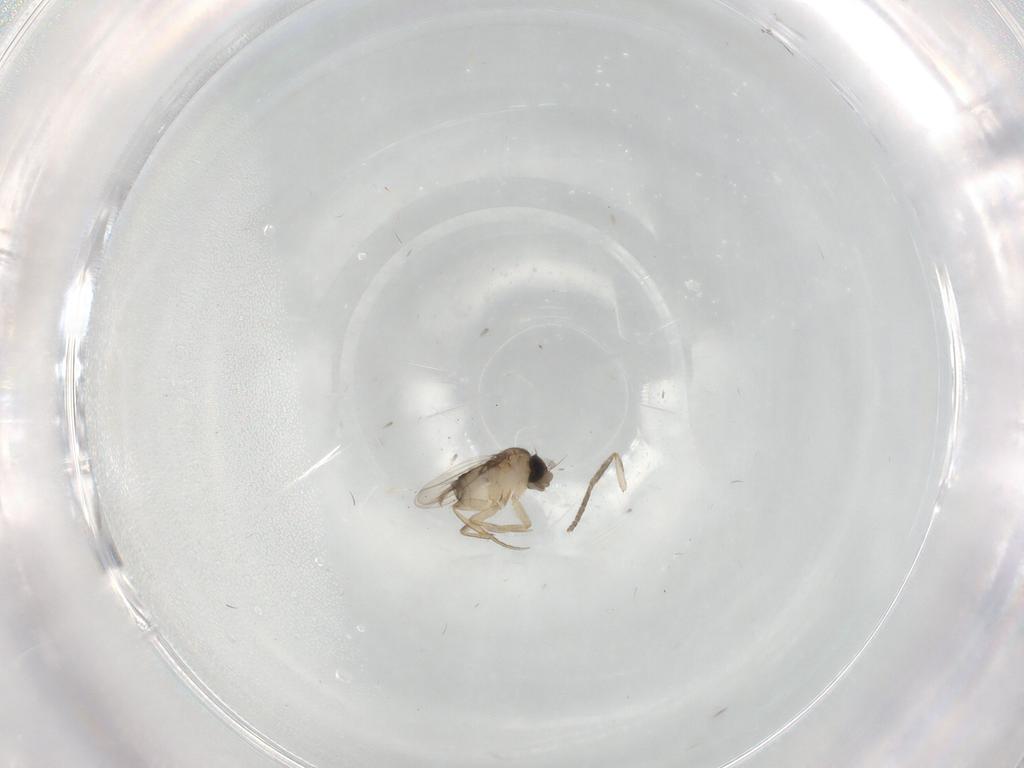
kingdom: Animalia
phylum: Arthropoda
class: Insecta
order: Diptera
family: Phoridae
